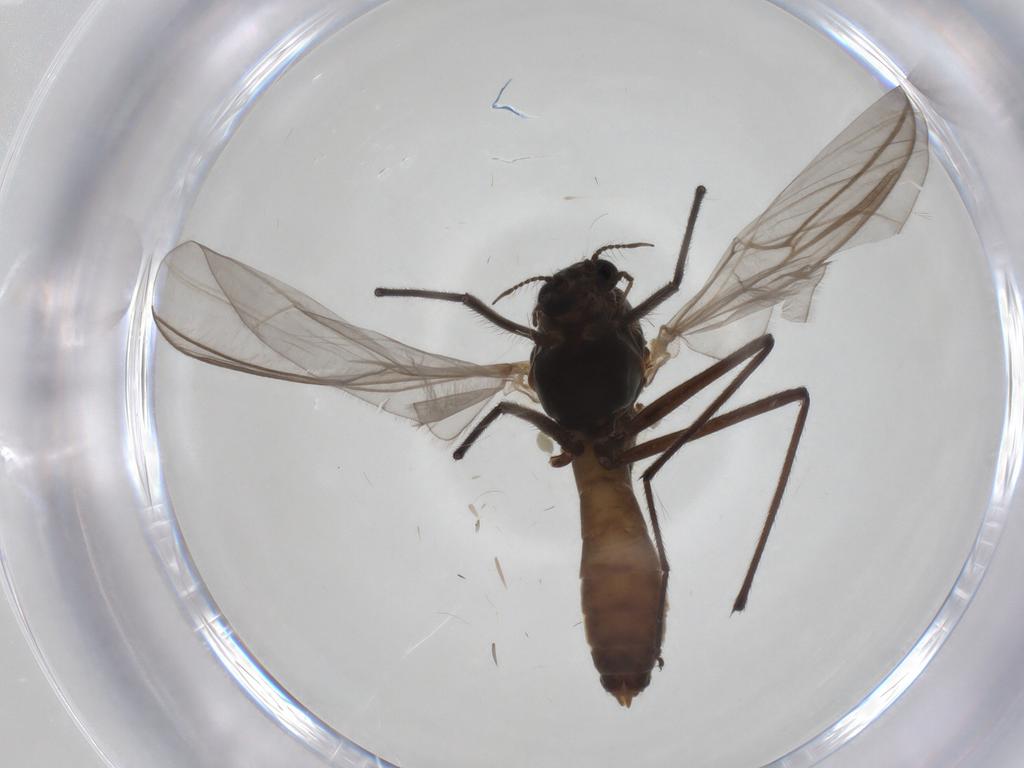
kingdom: Animalia
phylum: Arthropoda
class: Insecta
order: Diptera
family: Chironomidae
